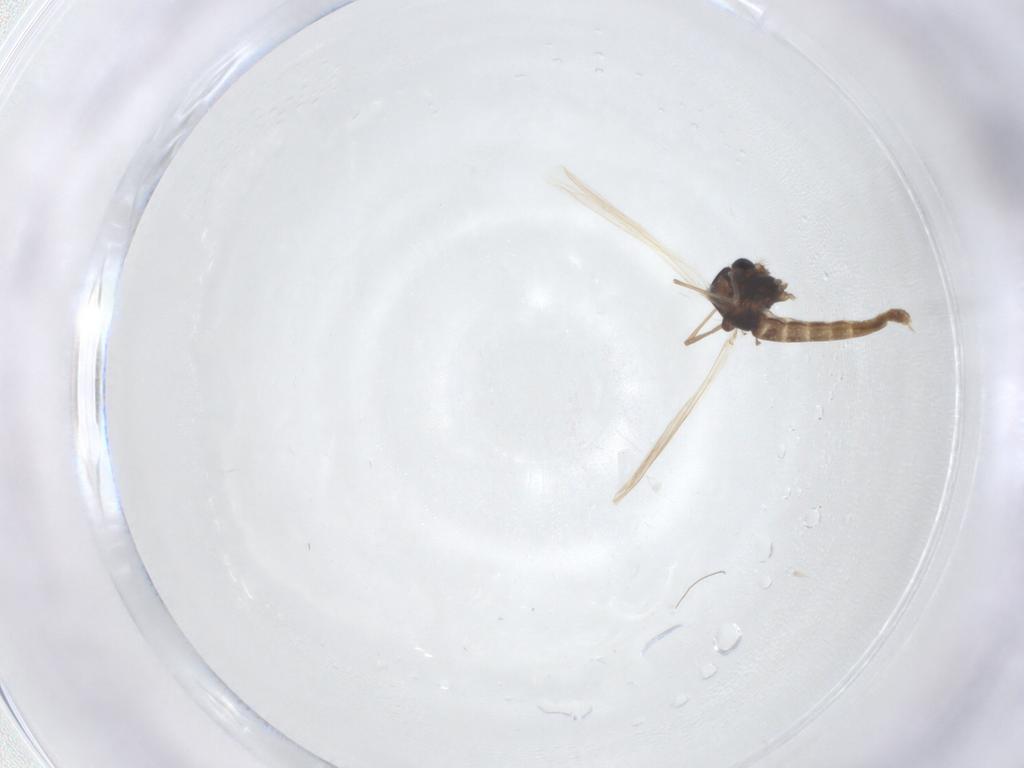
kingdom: Animalia
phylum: Arthropoda
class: Insecta
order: Diptera
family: Chironomidae
